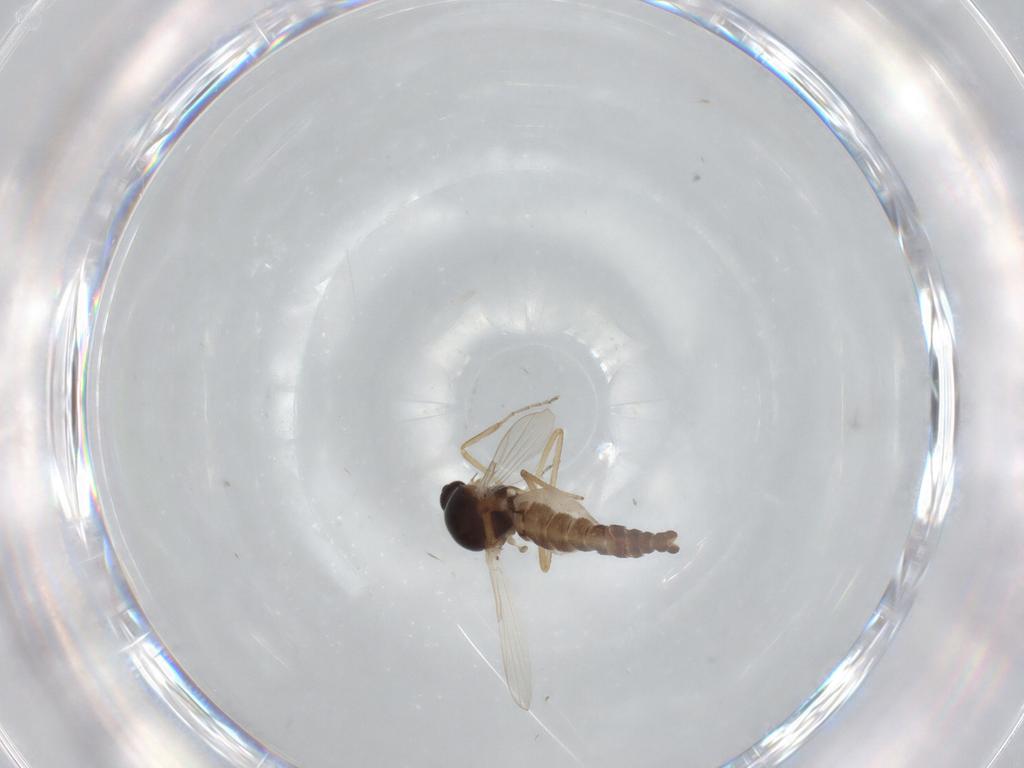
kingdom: Animalia
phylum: Arthropoda
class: Insecta
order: Diptera
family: Ceratopogonidae
